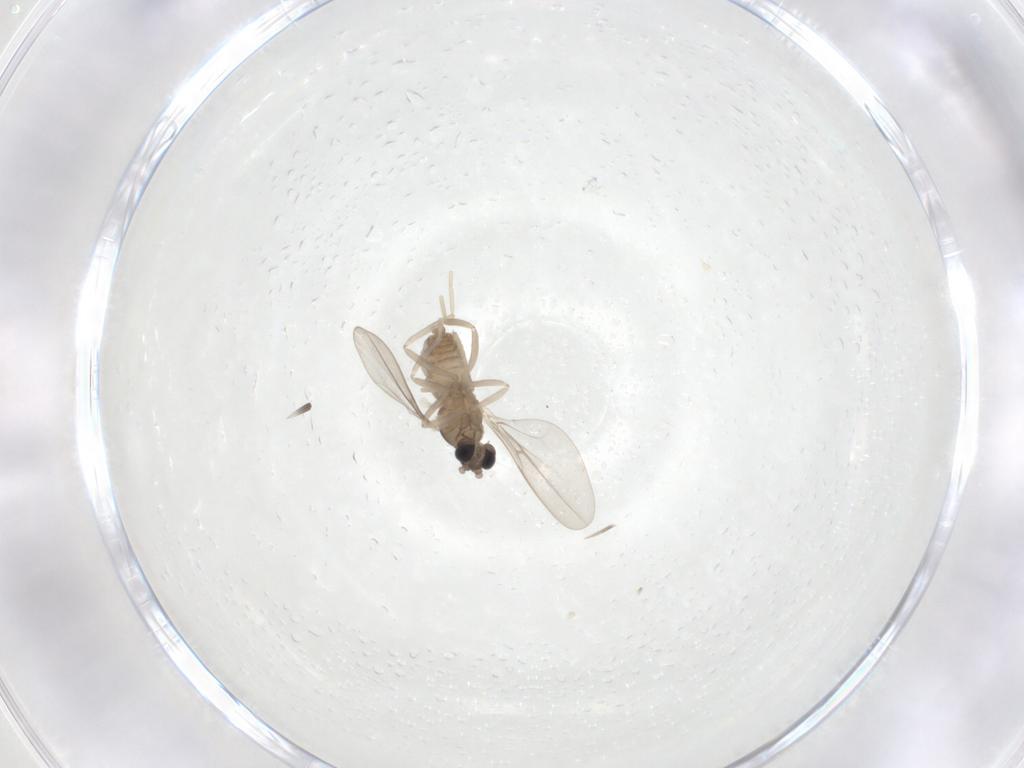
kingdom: Animalia
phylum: Arthropoda
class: Insecta
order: Diptera
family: Cecidomyiidae
